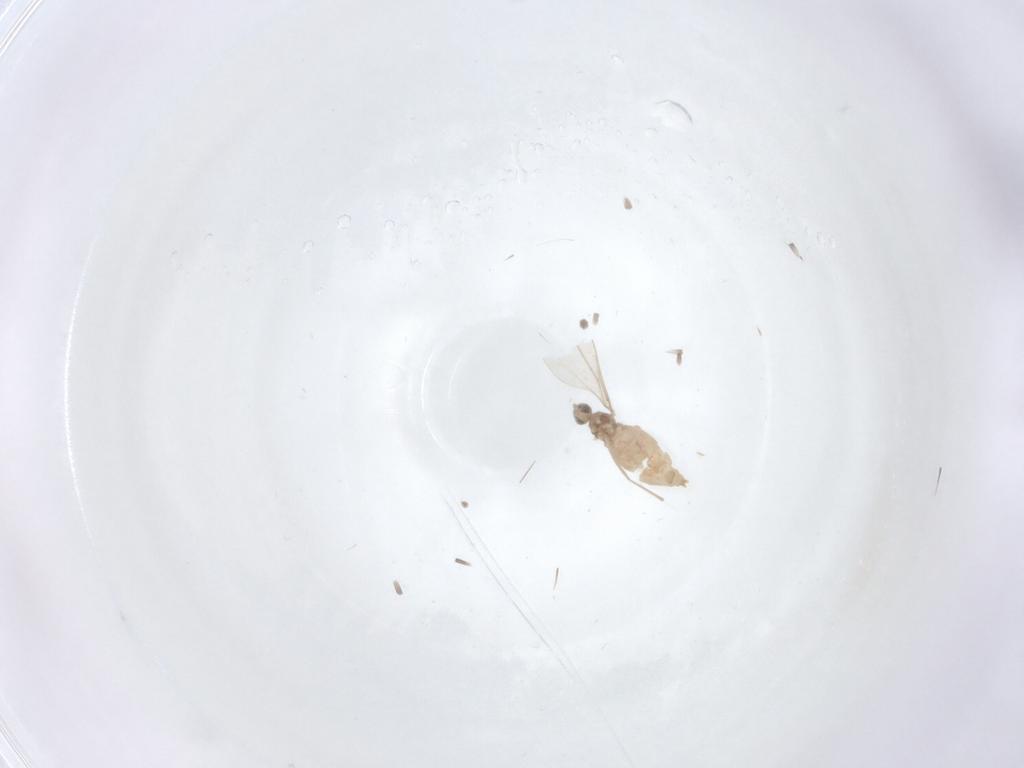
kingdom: Animalia
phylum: Arthropoda
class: Insecta
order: Diptera
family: Cecidomyiidae
